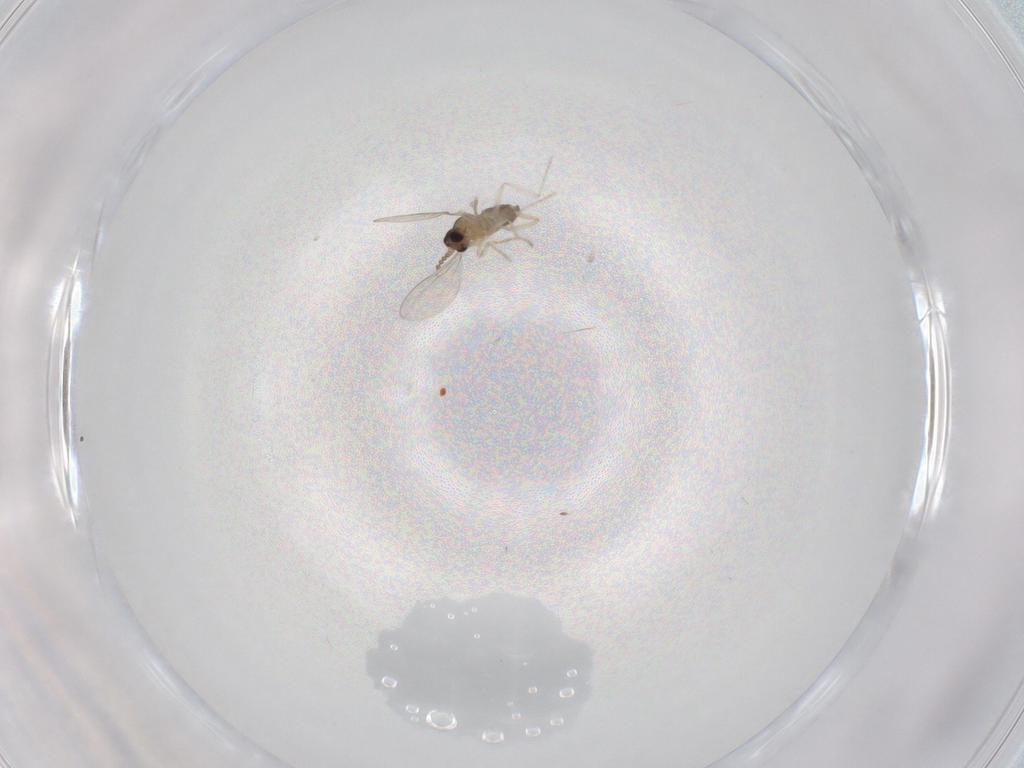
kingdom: Animalia
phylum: Arthropoda
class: Insecta
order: Diptera
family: Cecidomyiidae
